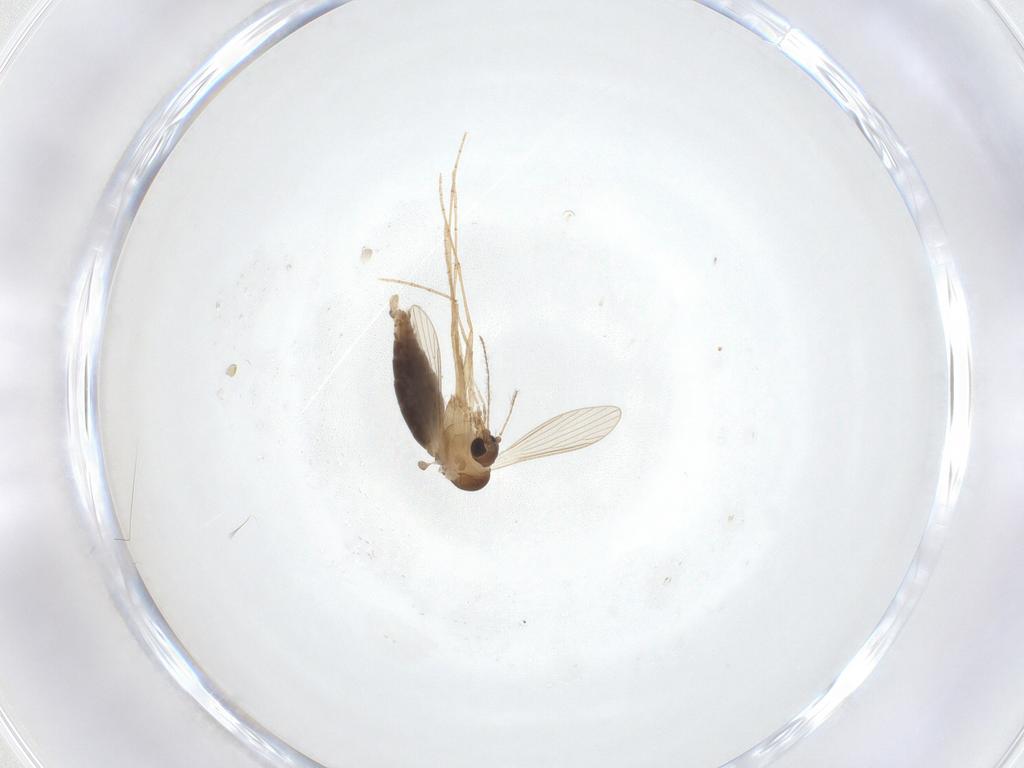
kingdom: Animalia
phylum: Arthropoda
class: Insecta
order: Diptera
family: Psychodidae
